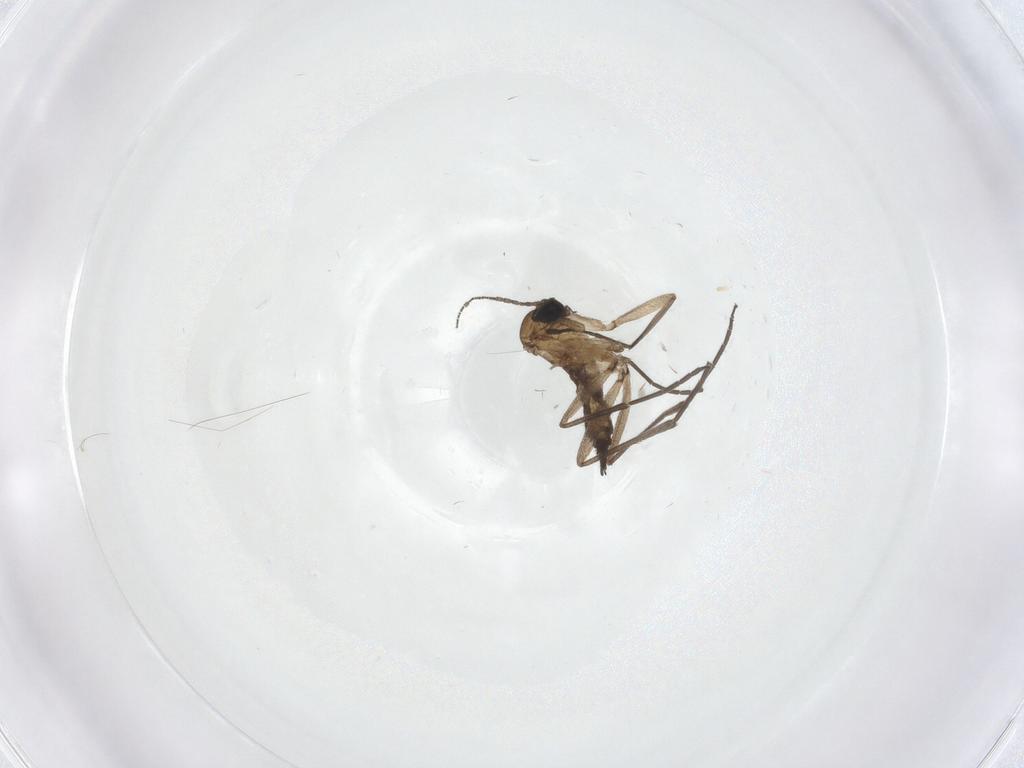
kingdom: Animalia
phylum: Arthropoda
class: Insecta
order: Diptera
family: Sciaridae
